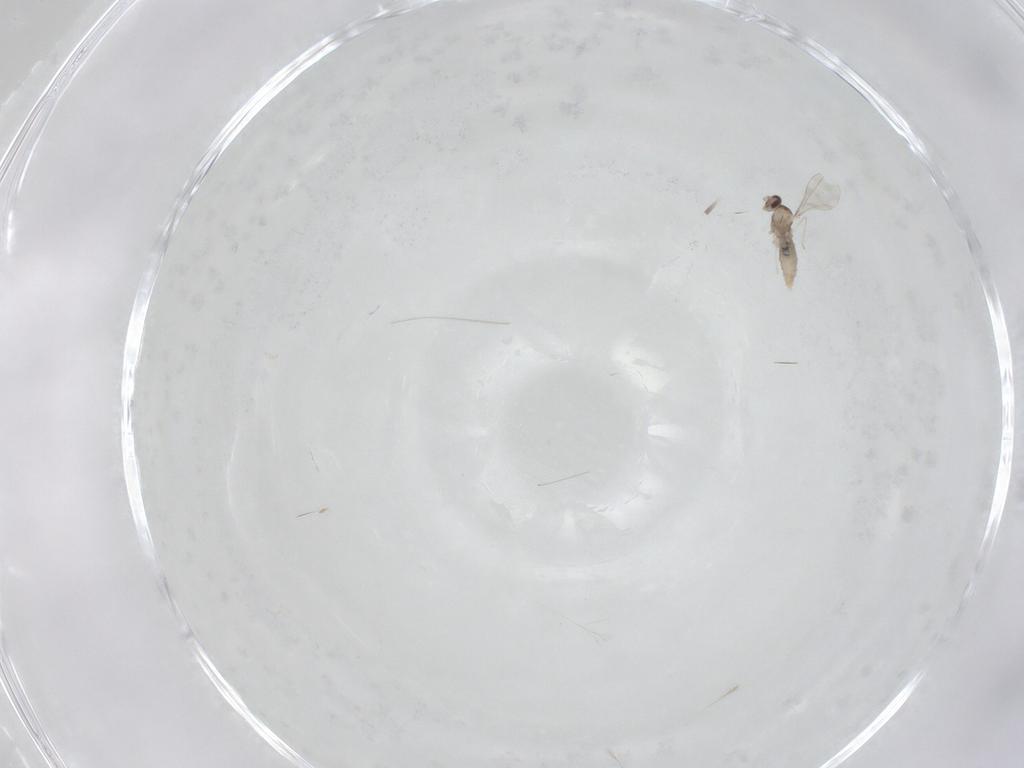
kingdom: Animalia
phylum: Arthropoda
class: Insecta
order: Diptera
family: Cecidomyiidae
